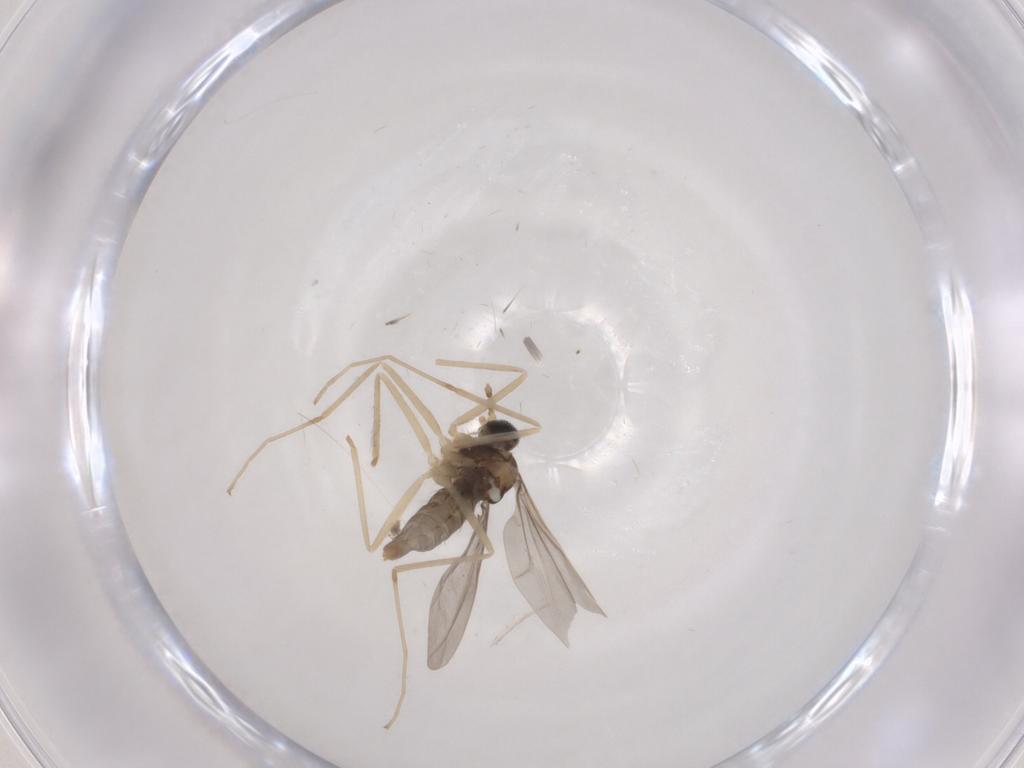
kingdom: Animalia
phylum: Arthropoda
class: Insecta
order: Diptera
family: Cecidomyiidae
